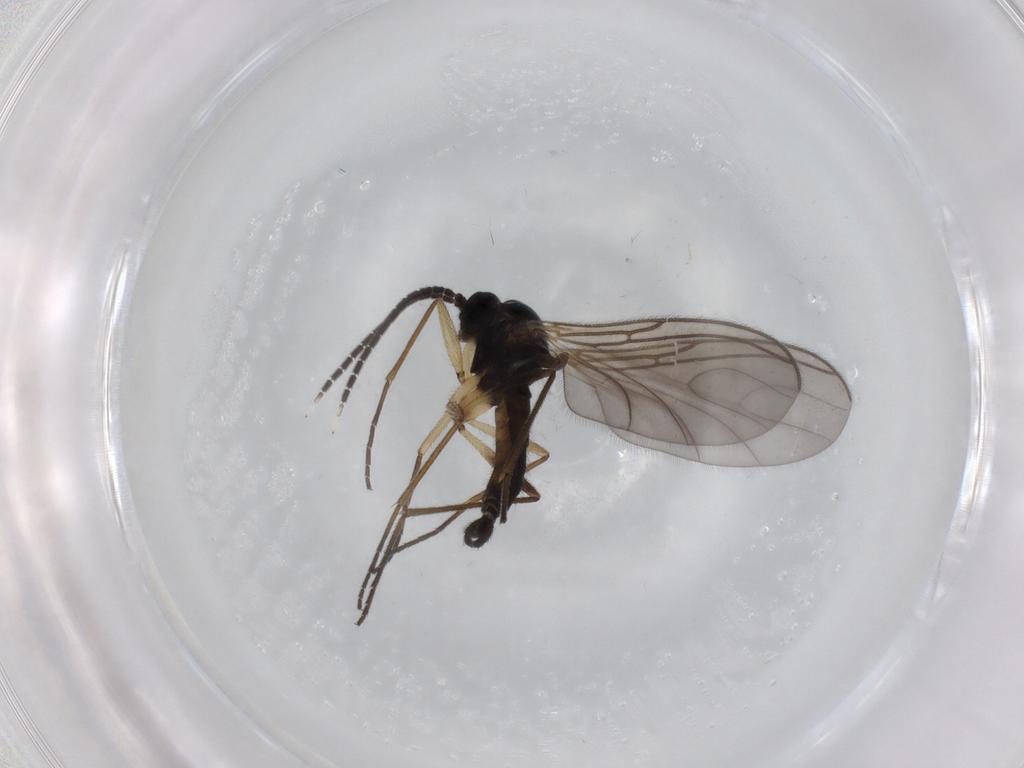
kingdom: Animalia
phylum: Arthropoda
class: Insecta
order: Diptera
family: Sciaridae
